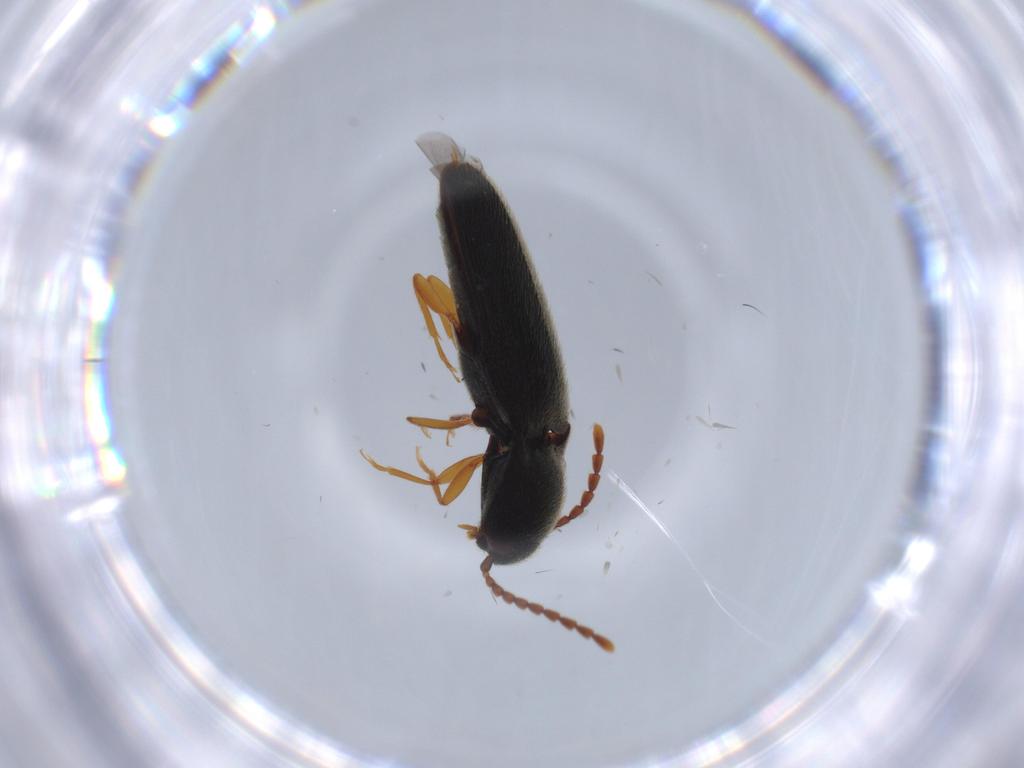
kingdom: Animalia
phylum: Arthropoda
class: Insecta
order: Coleoptera
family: Elateridae
